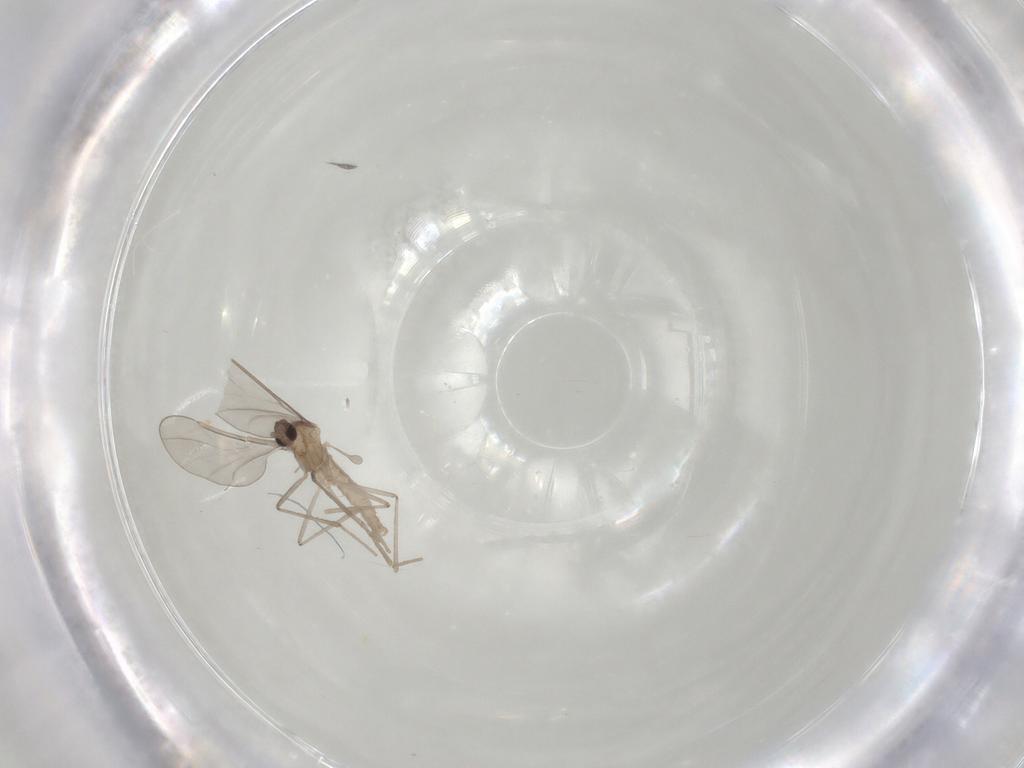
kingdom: Animalia
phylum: Arthropoda
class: Insecta
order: Diptera
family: Cecidomyiidae
